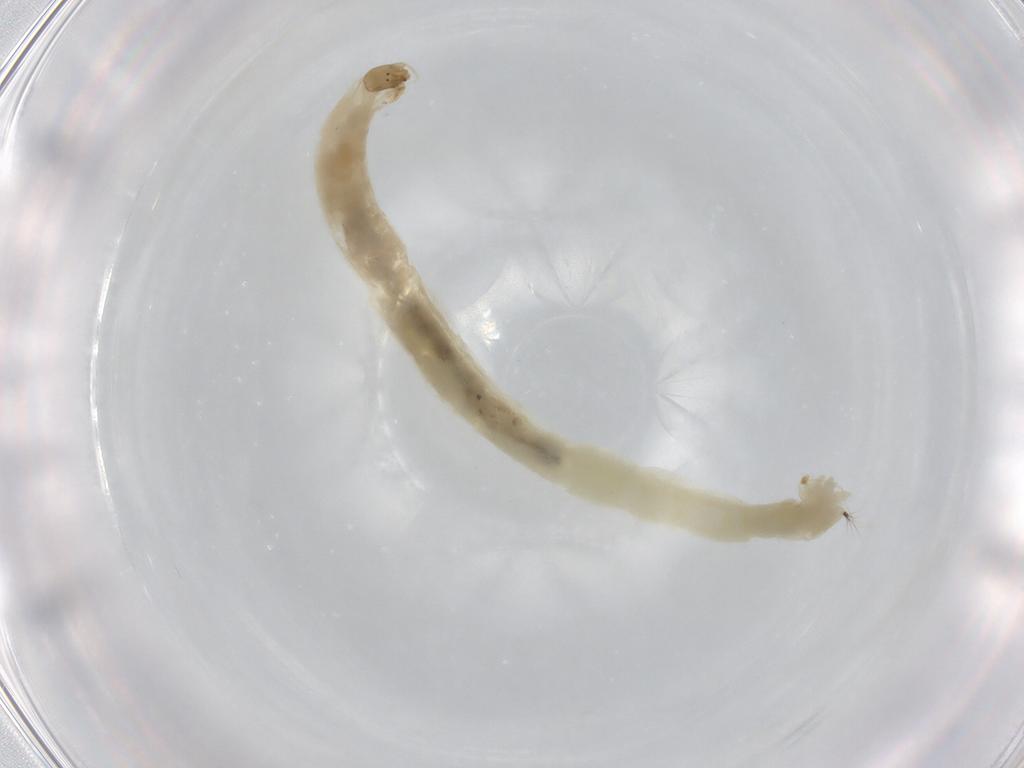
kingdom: Animalia
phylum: Arthropoda
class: Insecta
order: Diptera
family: Chironomidae
